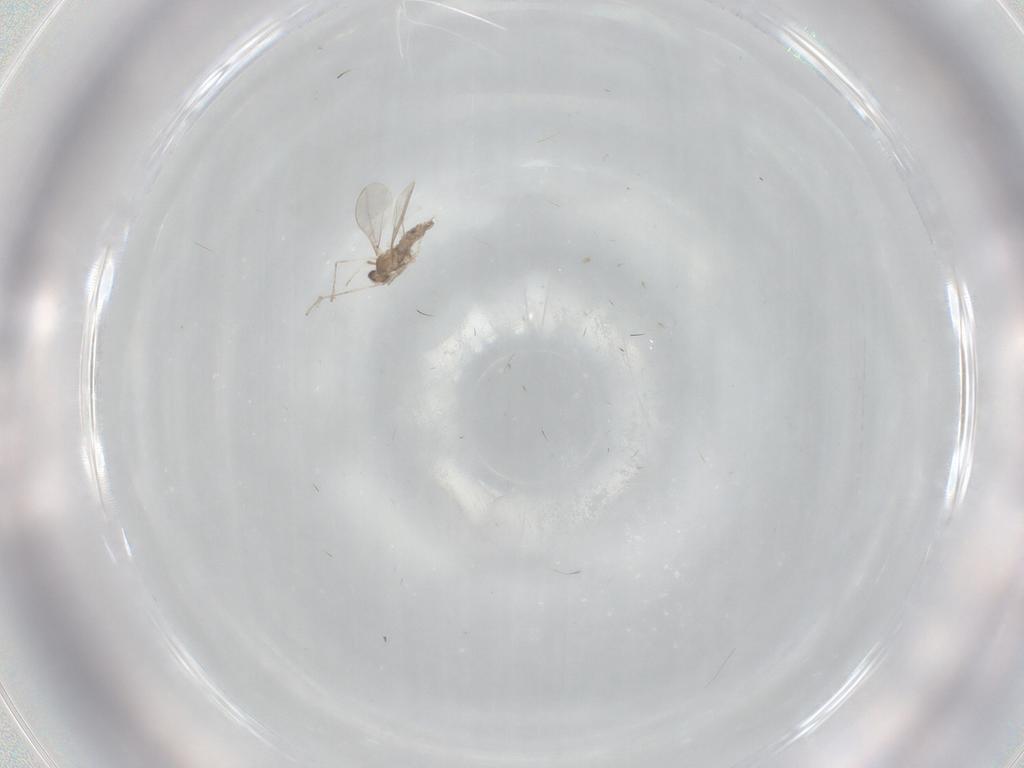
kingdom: Animalia
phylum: Arthropoda
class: Insecta
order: Diptera
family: Cecidomyiidae
